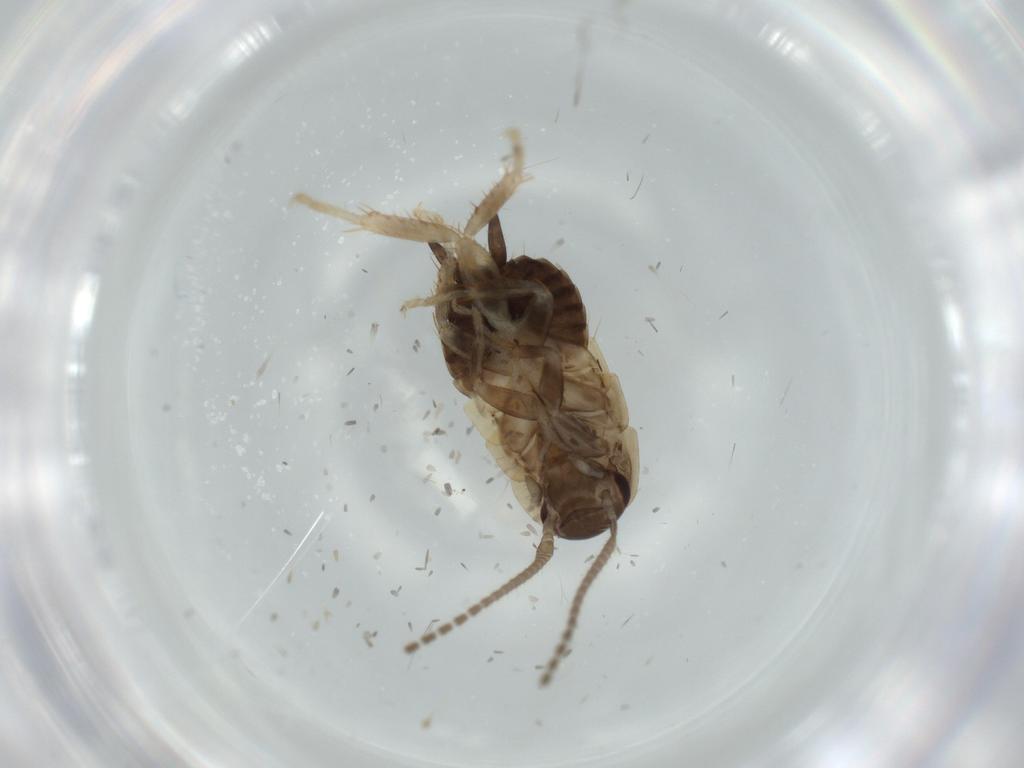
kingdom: Animalia
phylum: Arthropoda
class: Insecta
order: Blattodea
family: Ectobiidae
